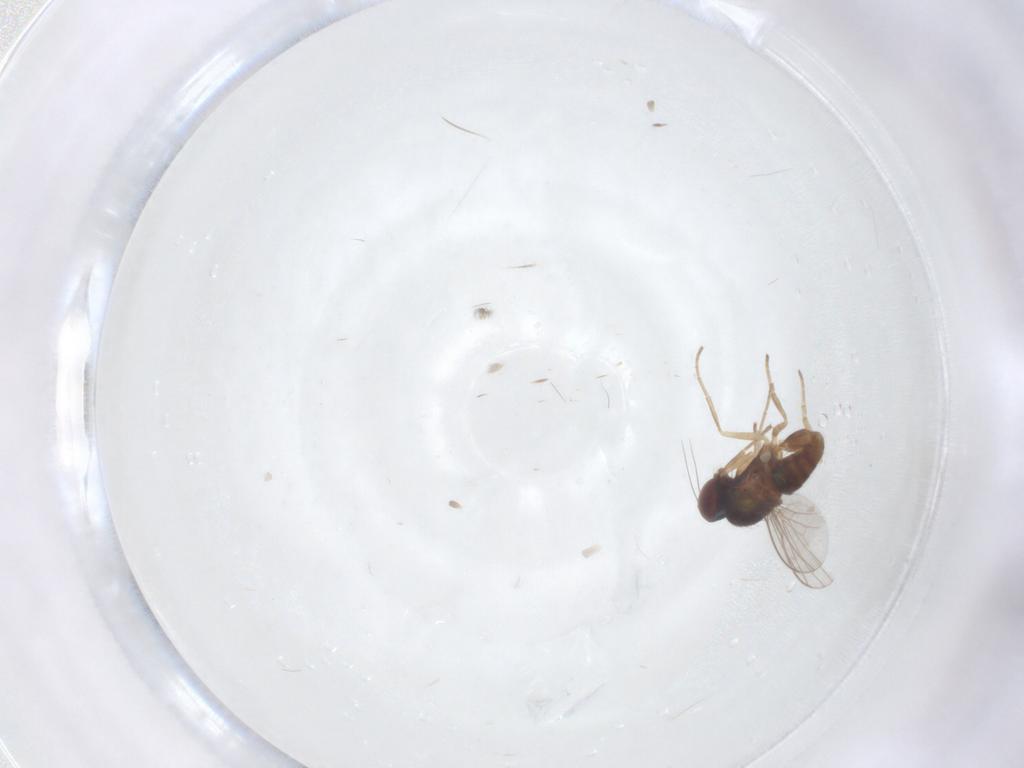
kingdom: Animalia
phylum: Arthropoda
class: Insecta
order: Diptera
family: Dolichopodidae
